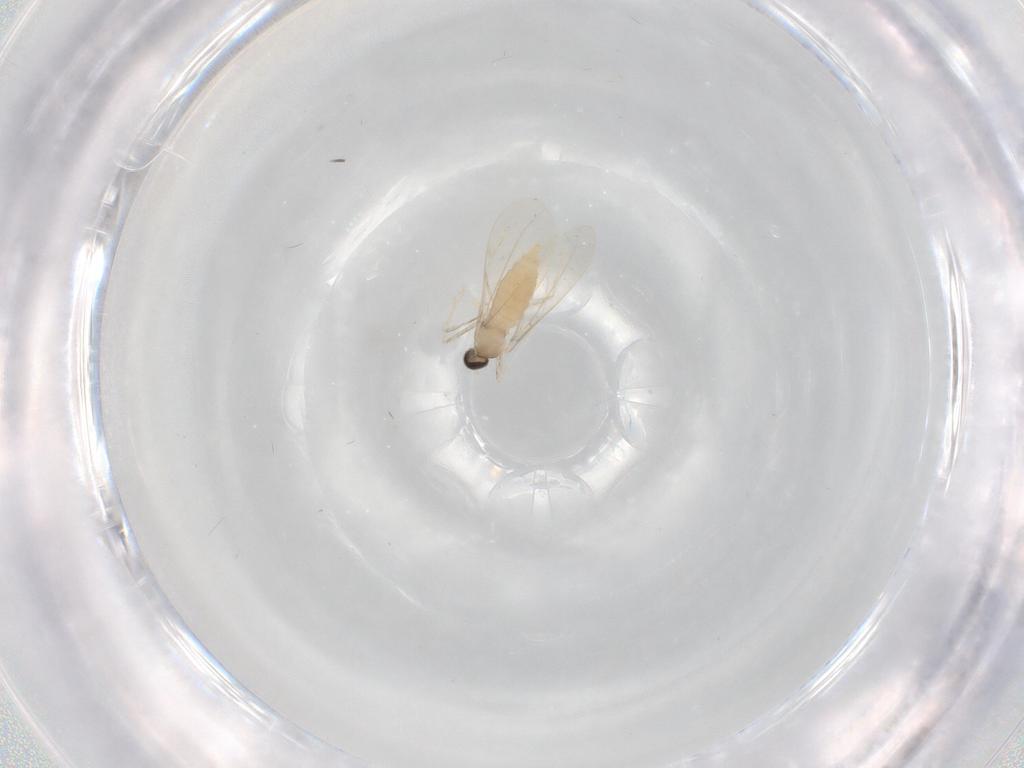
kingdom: Animalia
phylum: Arthropoda
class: Insecta
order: Diptera
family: Cecidomyiidae
